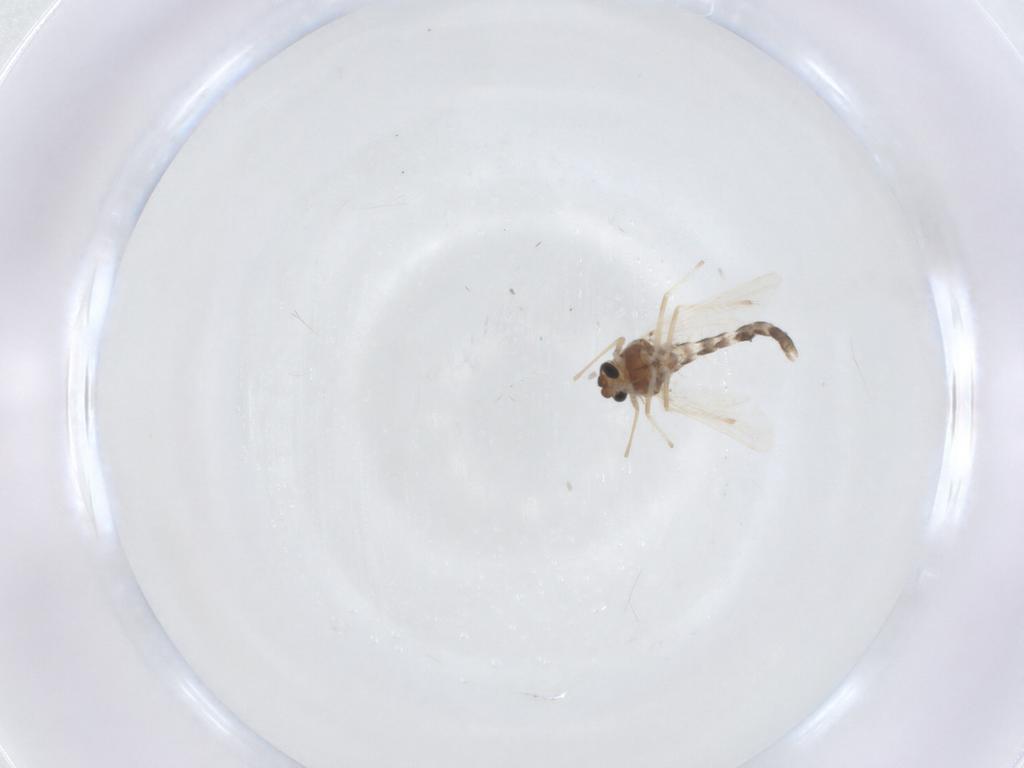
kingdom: Animalia
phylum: Arthropoda
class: Insecta
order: Diptera
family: Chironomidae
